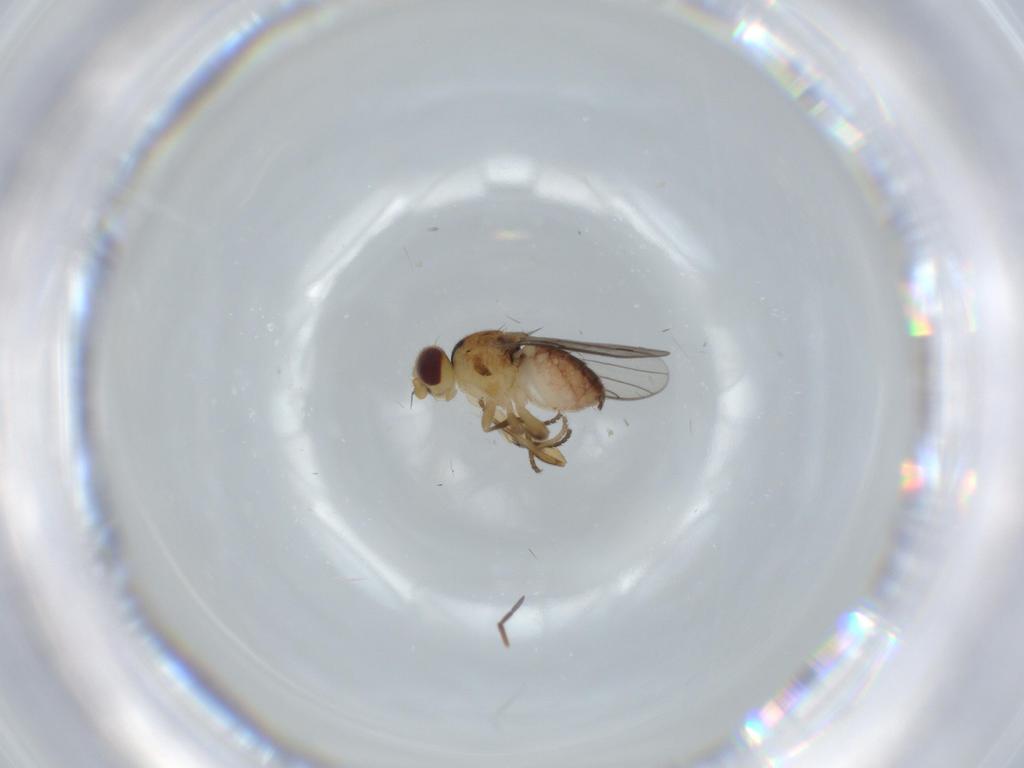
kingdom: Animalia
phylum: Arthropoda
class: Insecta
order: Diptera
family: Chloropidae
